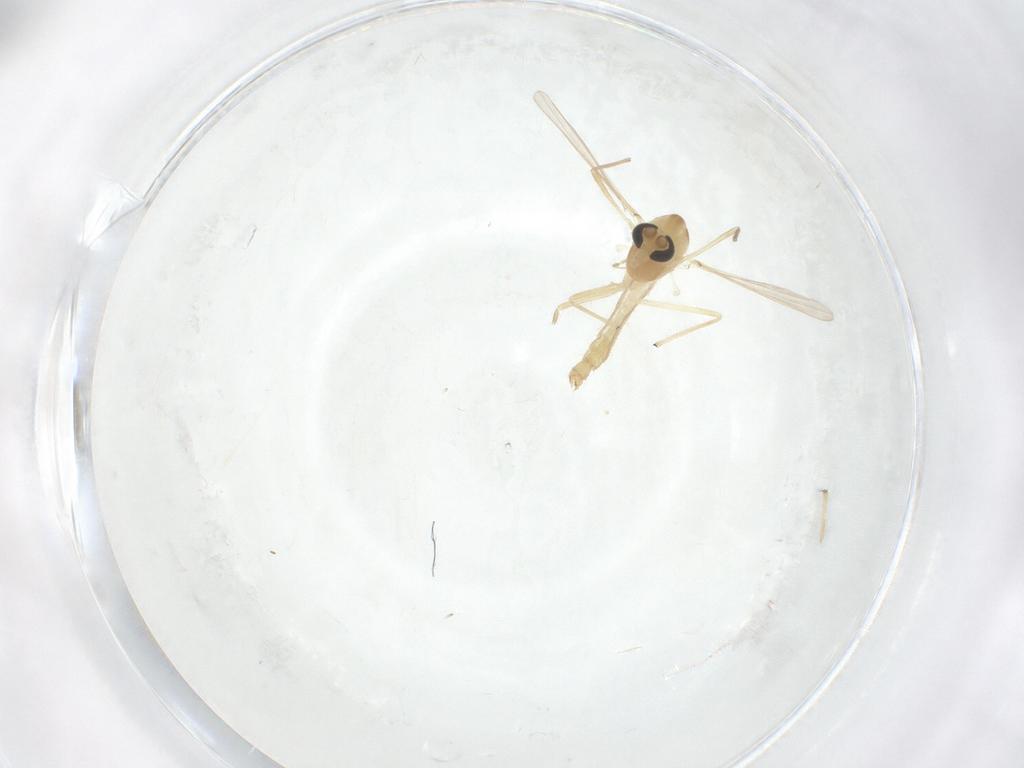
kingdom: Animalia
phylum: Arthropoda
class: Insecta
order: Diptera
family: Chironomidae
